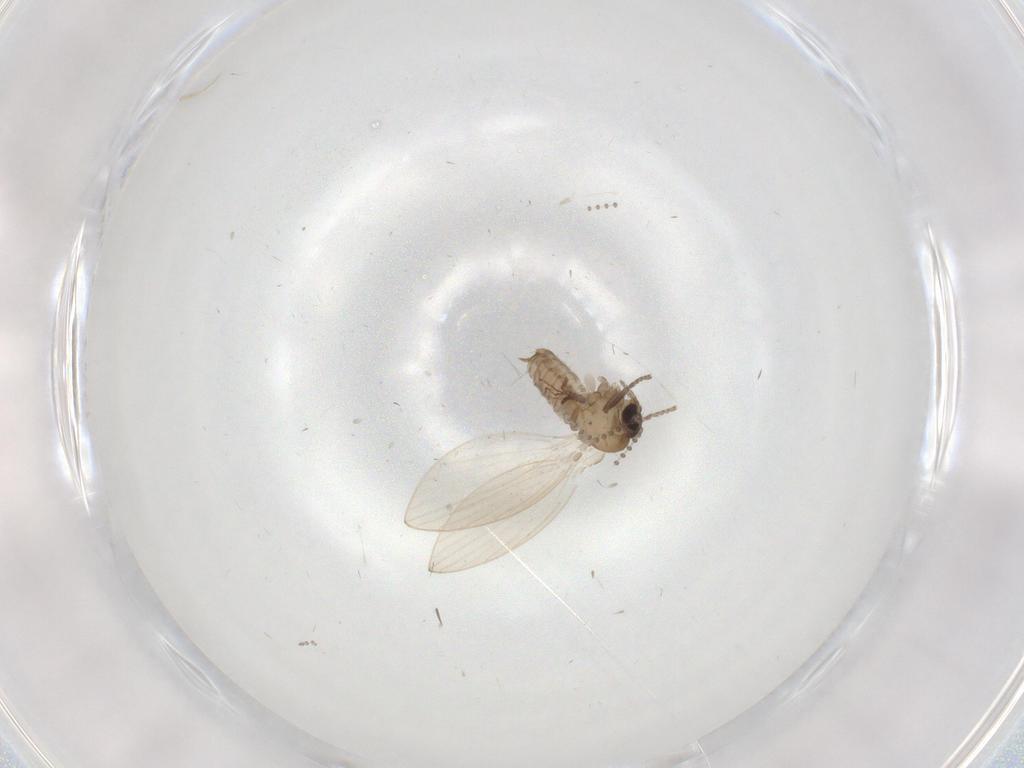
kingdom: Animalia
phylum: Arthropoda
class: Insecta
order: Diptera
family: Psychodidae
